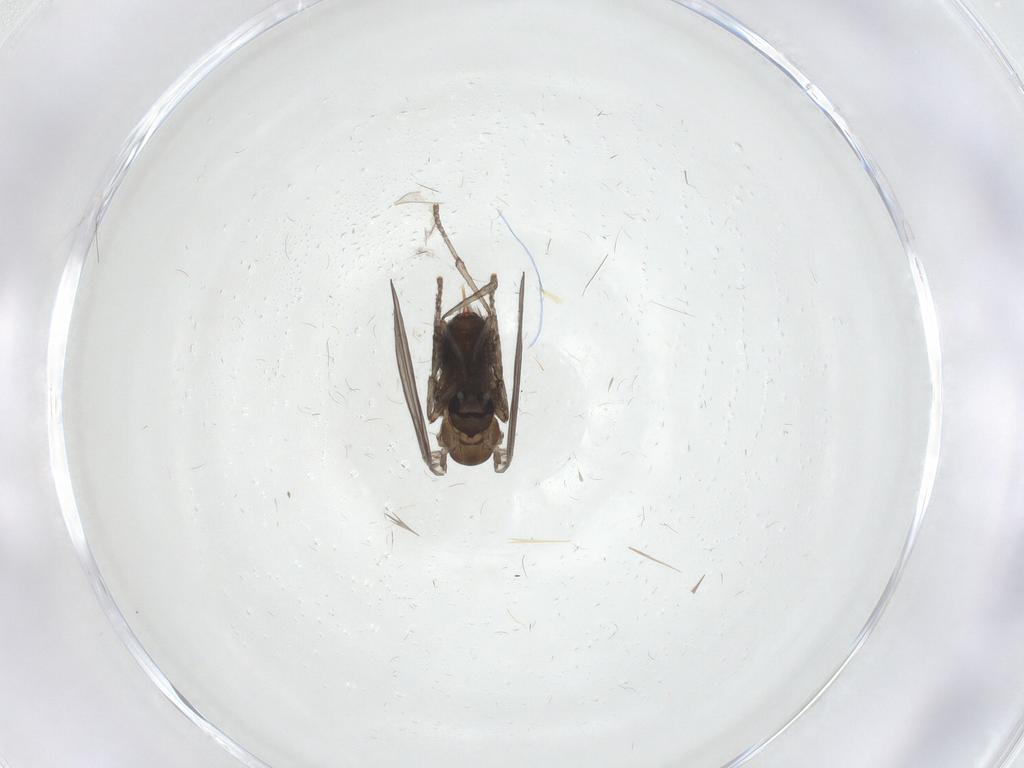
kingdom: Animalia
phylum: Arthropoda
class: Insecta
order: Diptera
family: Psychodidae
